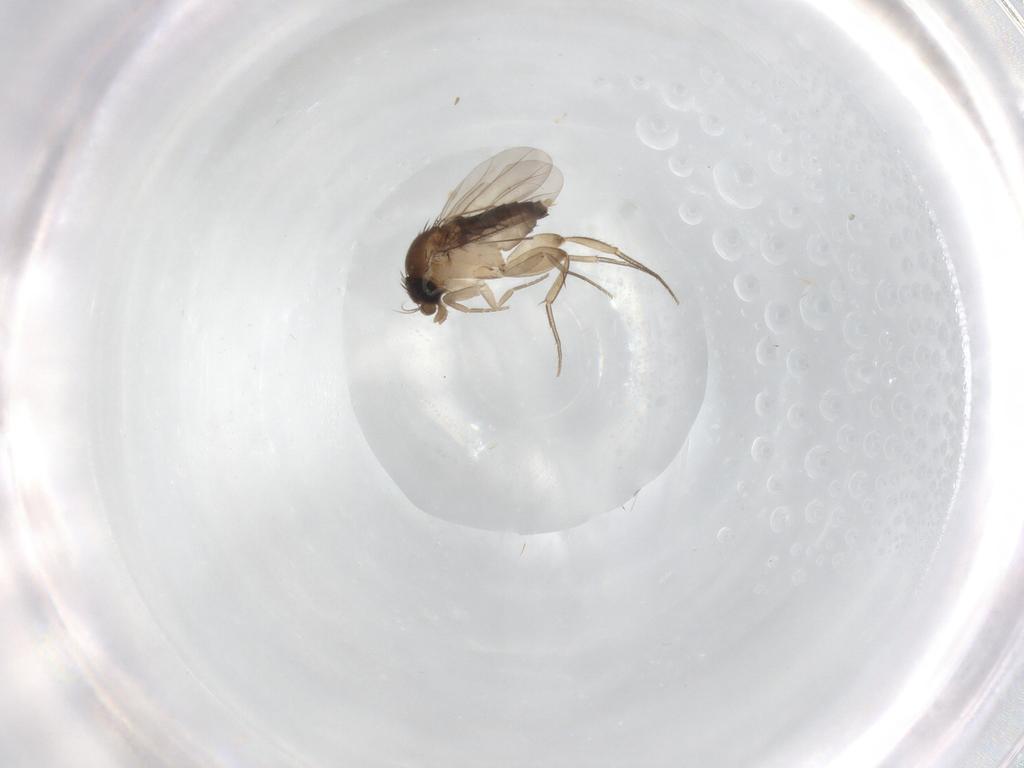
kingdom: Animalia
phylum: Arthropoda
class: Insecta
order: Diptera
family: Phoridae
